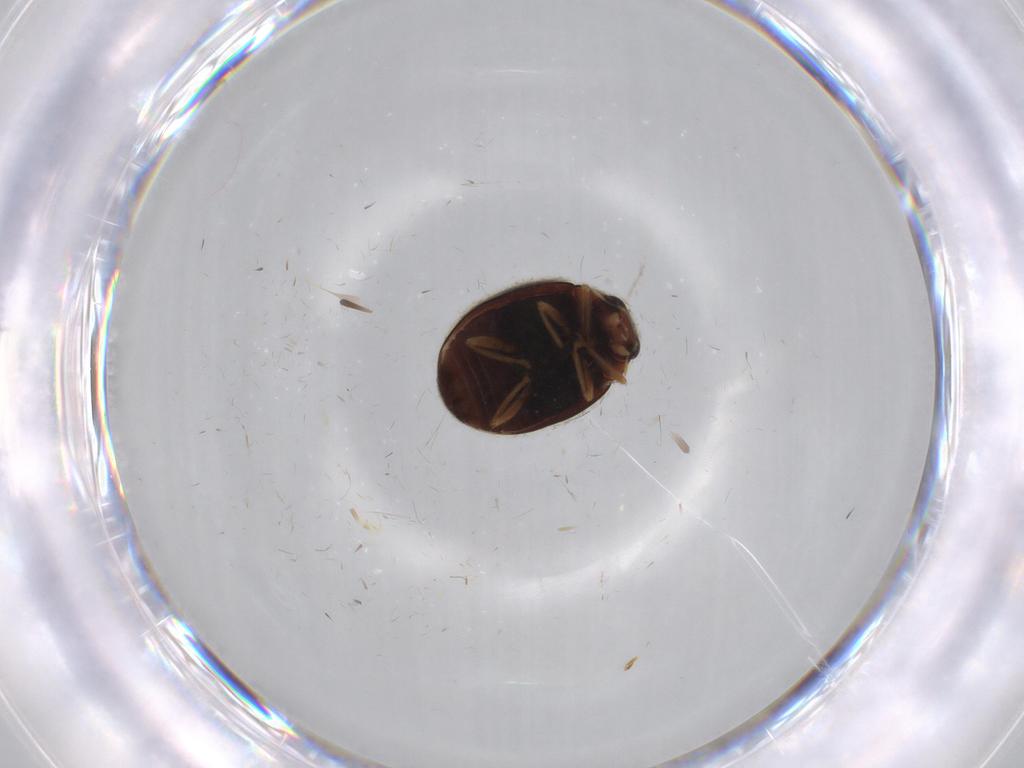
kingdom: Animalia
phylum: Arthropoda
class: Insecta
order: Coleoptera
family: Coccinellidae
